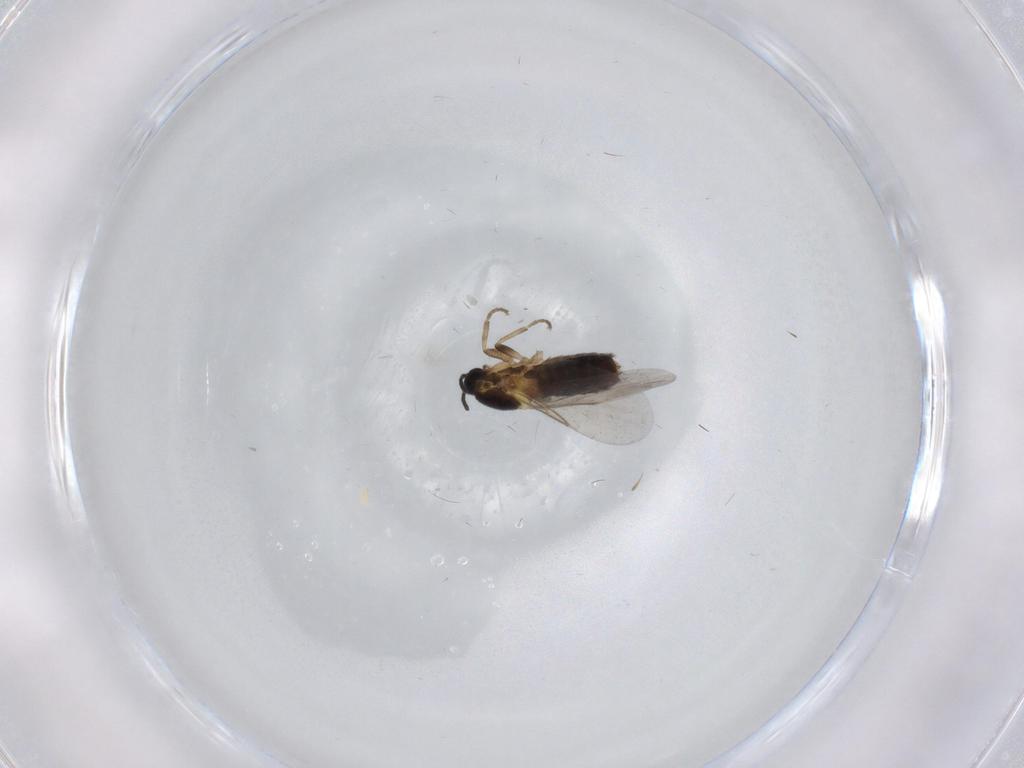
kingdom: Animalia
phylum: Arthropoda
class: Insecta
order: Diptera
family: Scatopsidae
